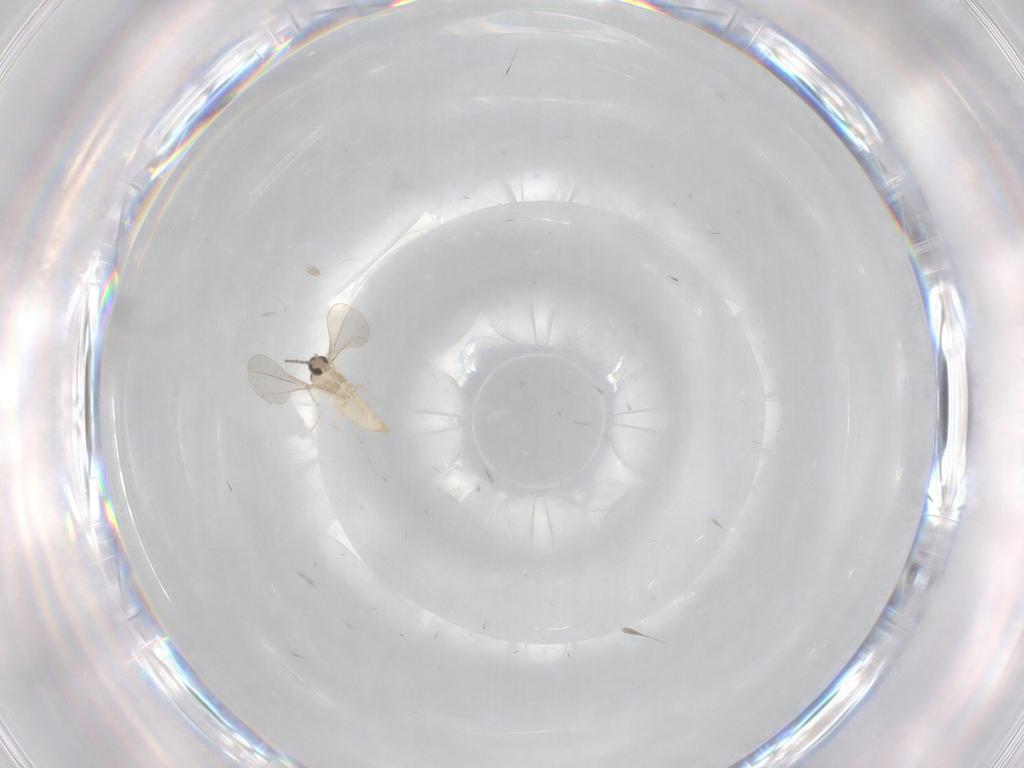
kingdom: Animalia
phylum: Arthropoda
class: Insecta
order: Diptera
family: Cecidomyiidae
